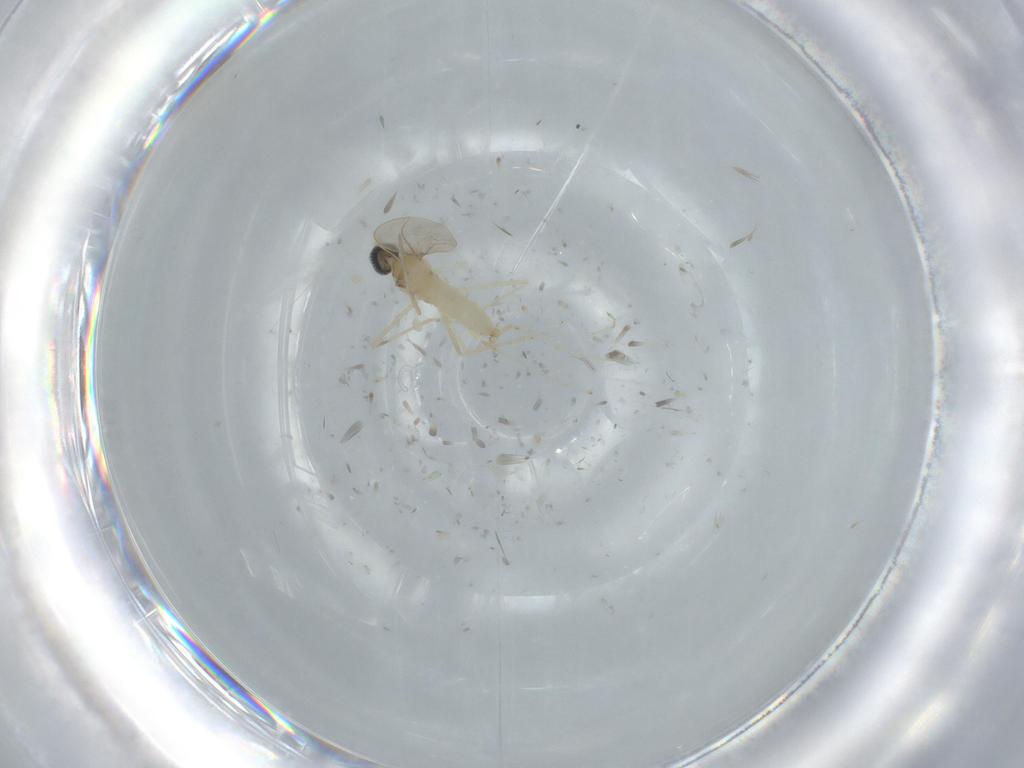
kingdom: Animalia
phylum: Arthropoda
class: Insecta
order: Diptera
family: Cecidomyiidae
